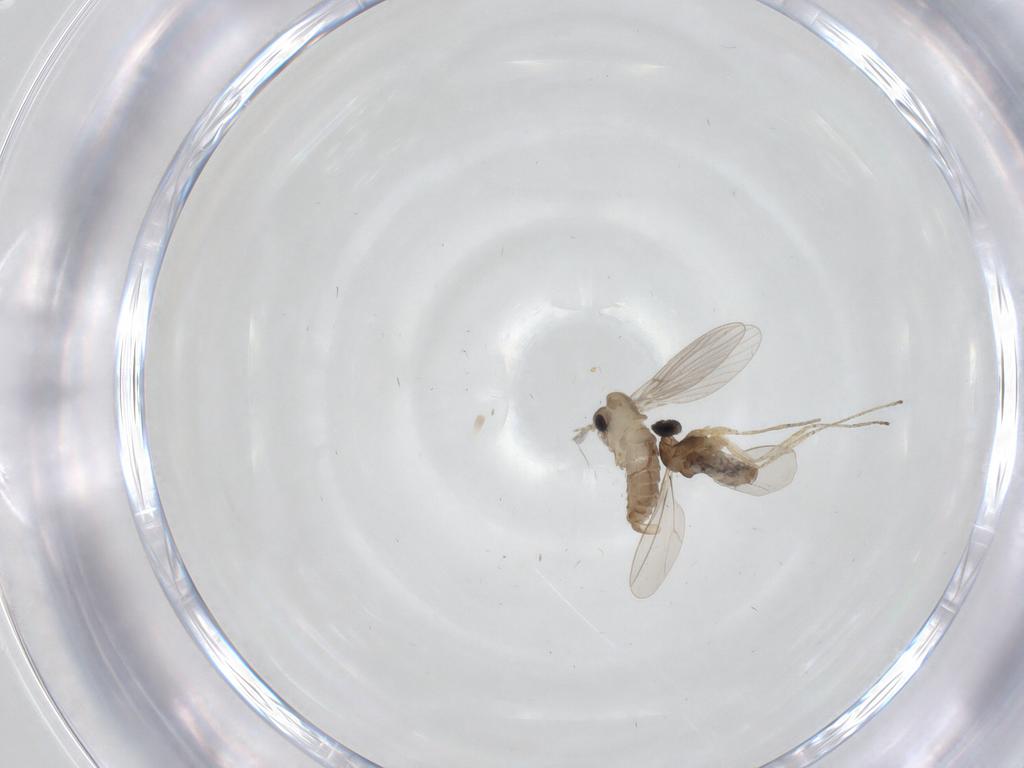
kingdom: Animalia
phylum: Arthropoda
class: Insecta
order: Diptera
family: Cecidomyiidae
